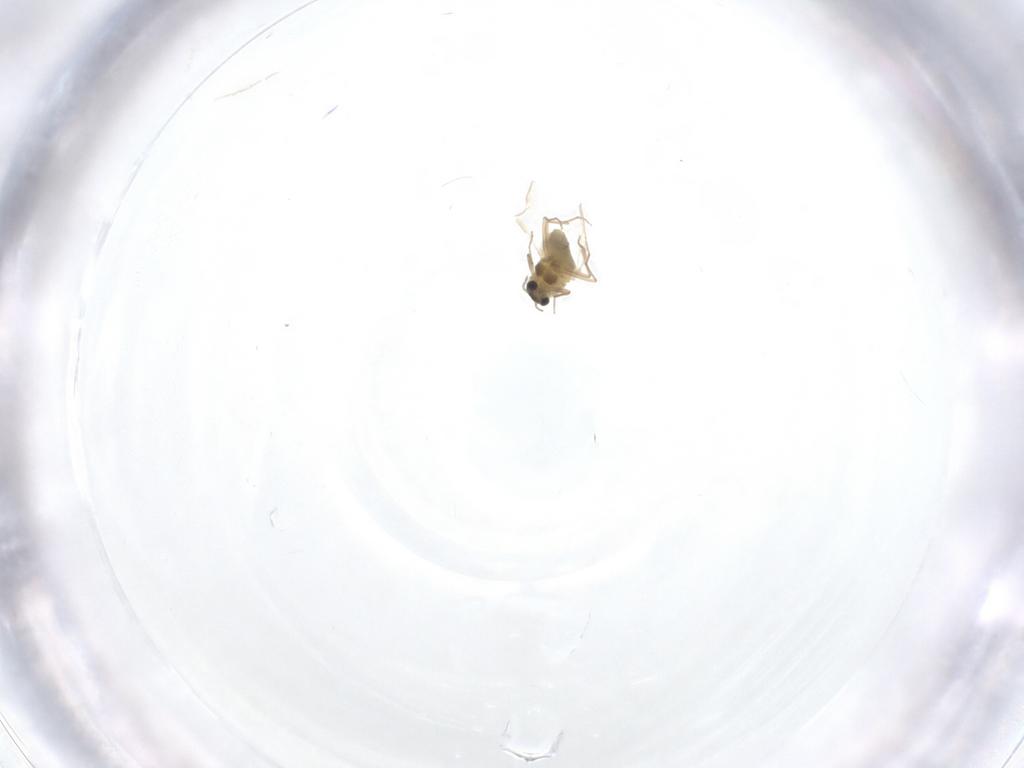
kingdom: Animalia
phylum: Arthropoda
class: Insecta
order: Diptera
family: Chironomidae
